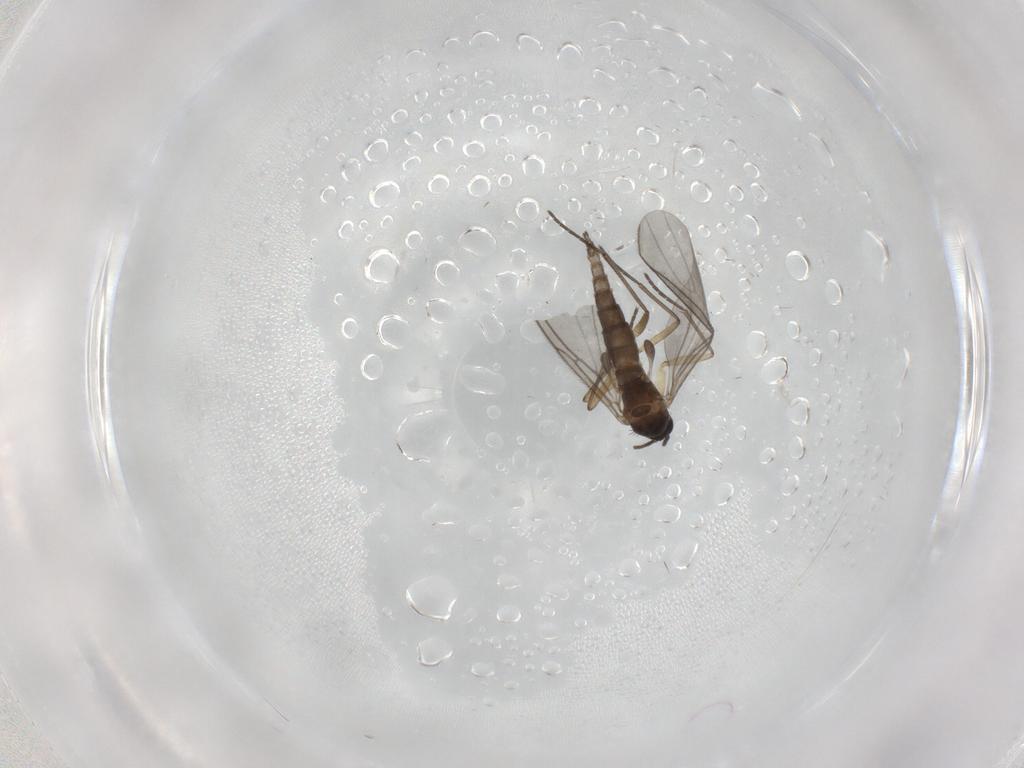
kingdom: Animalia
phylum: Arthropoda
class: Insecta
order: Diptera
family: Sciaridae
